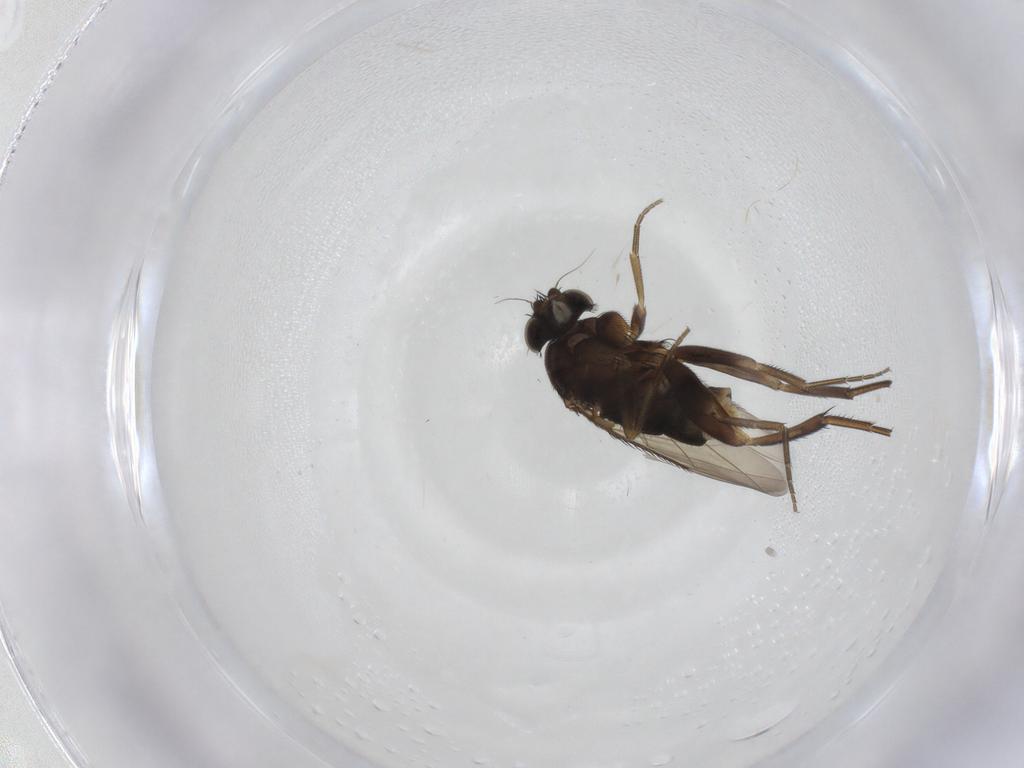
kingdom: Animalia
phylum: Arthropoda
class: Insecta
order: Diptera
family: Phoridae
